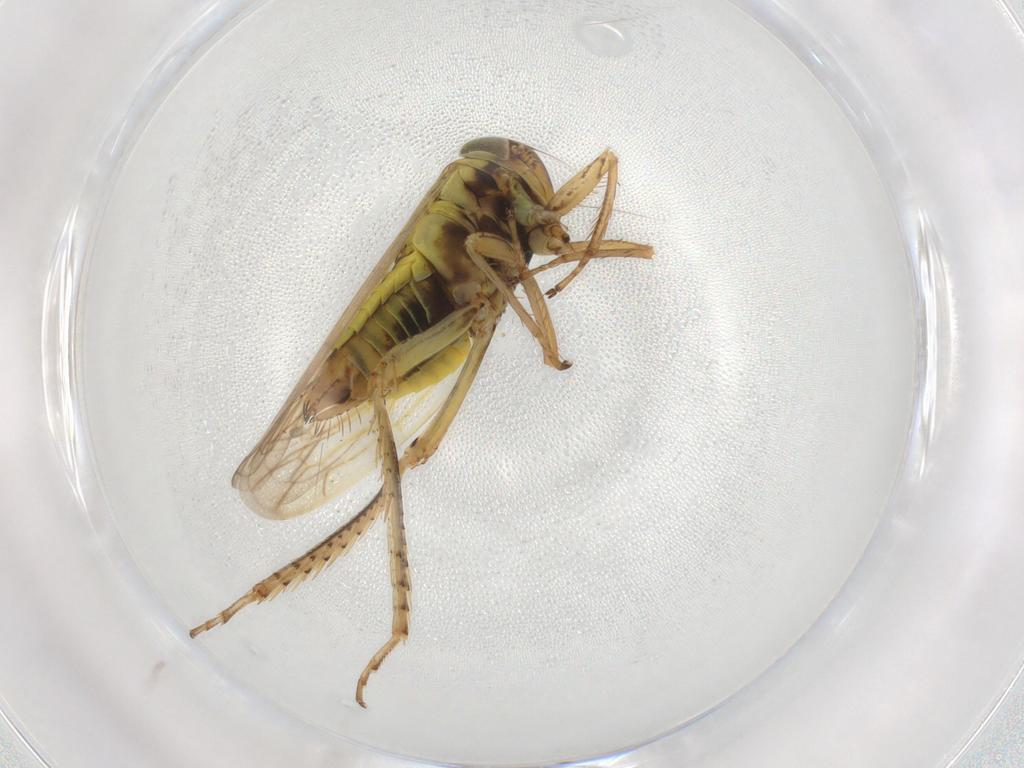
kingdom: Animalia
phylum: Arthropoda
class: Insecta
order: Hemiptera
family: Cicadellidae
